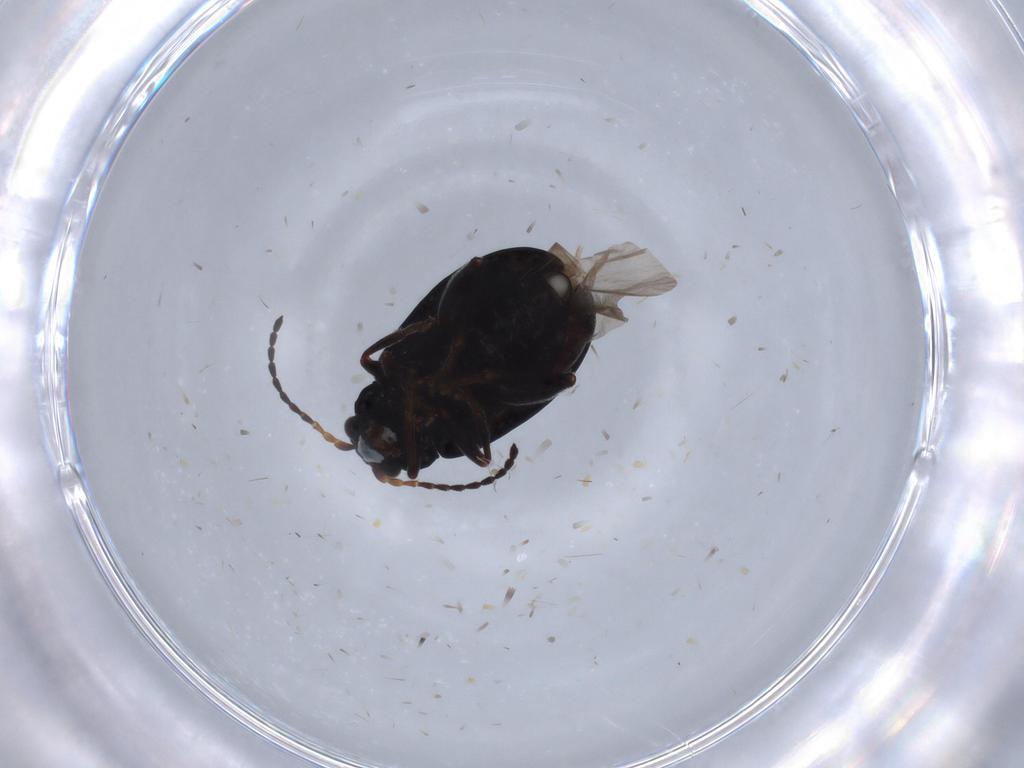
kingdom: Animalia
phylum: Arthropoda
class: Insecta
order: Coleoptera
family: Chrysomelidae
